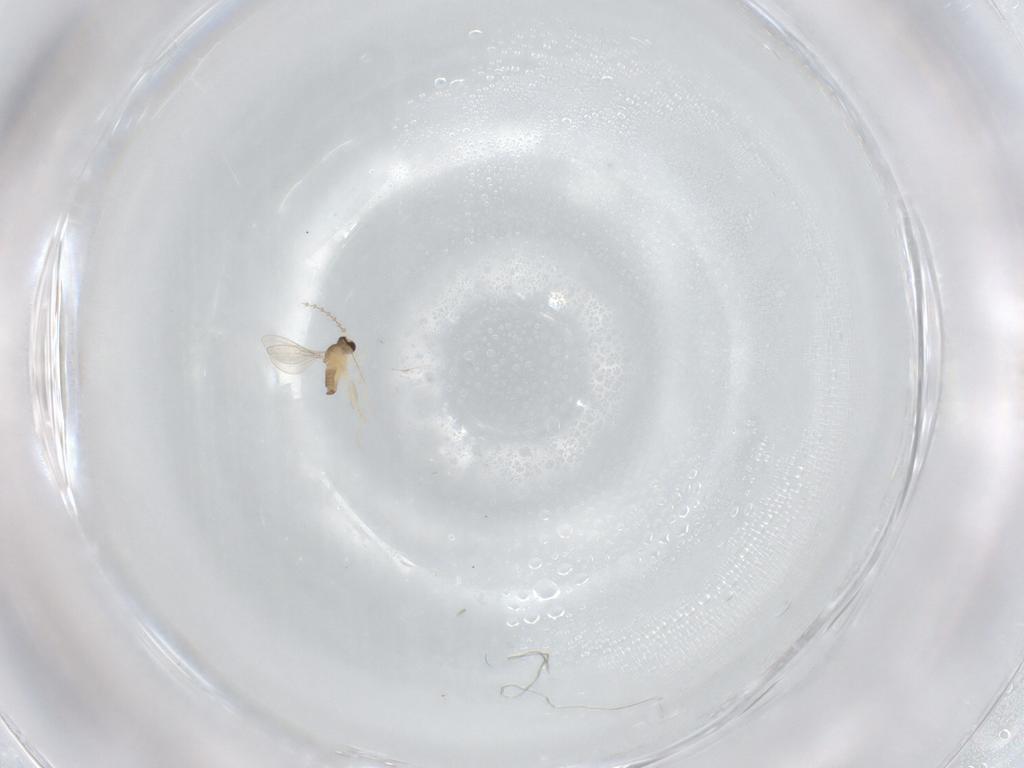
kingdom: Animalia
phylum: Arthropoda
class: Insecta
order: Diptera
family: Cecidomyiidae
